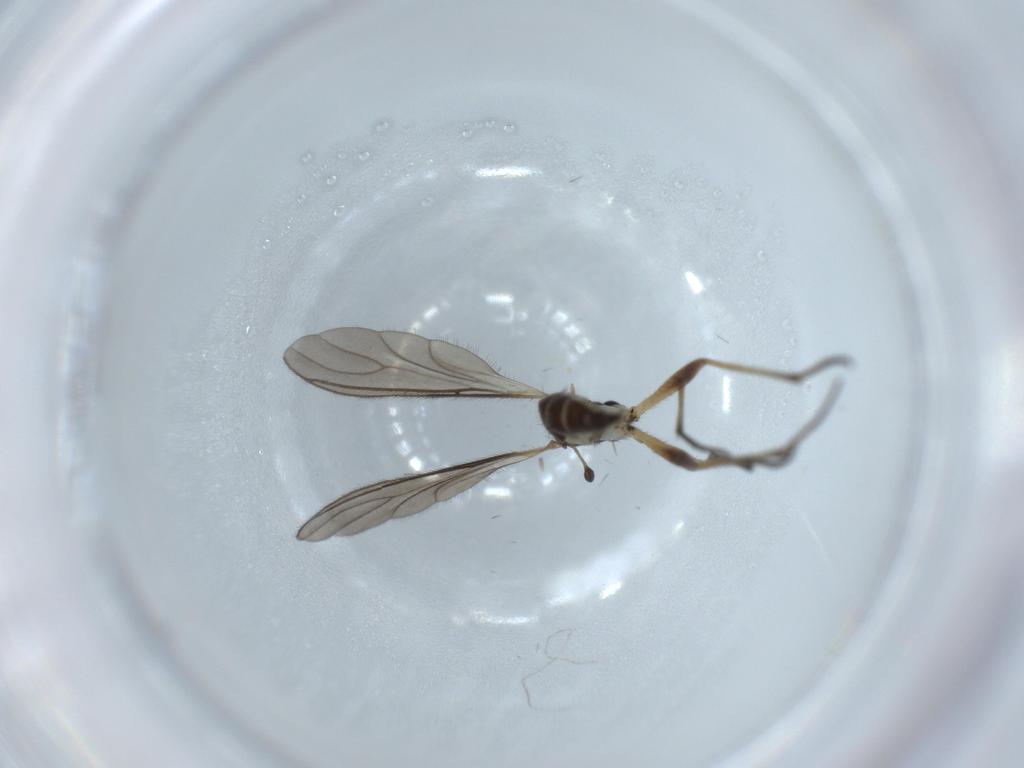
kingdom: Animalia
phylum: Arthropoda
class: Insecta
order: Diptera
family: Sciaridae
